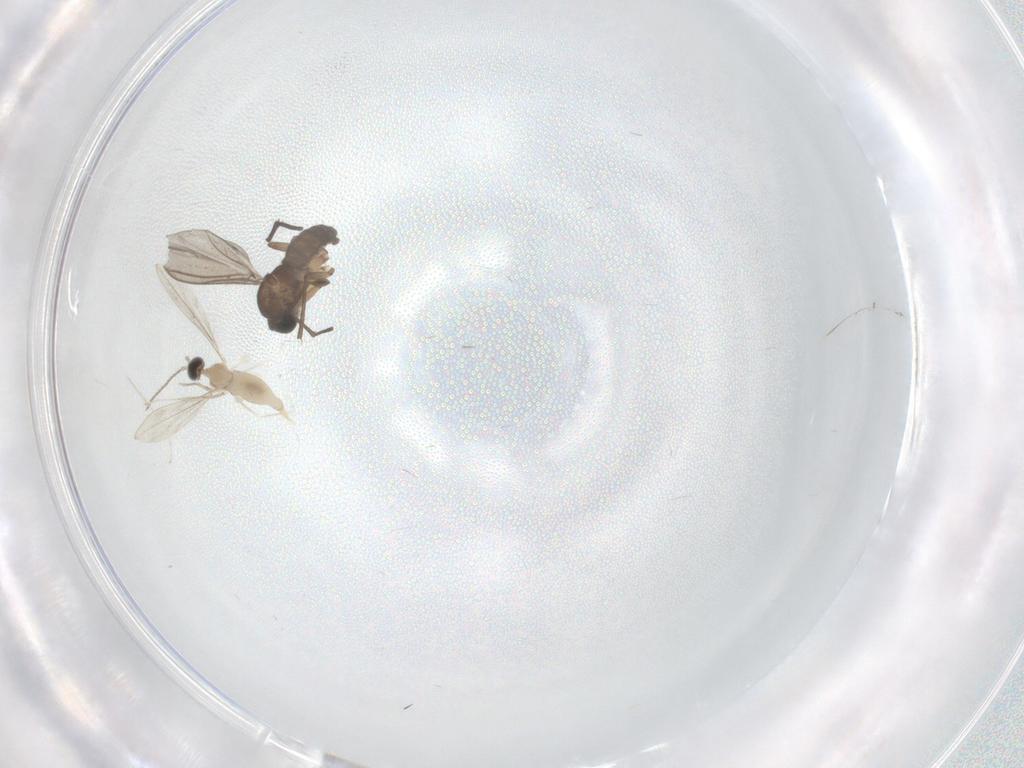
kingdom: Animalia
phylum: Arthropoda
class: Insecta
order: Diptera
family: Sciaridae
